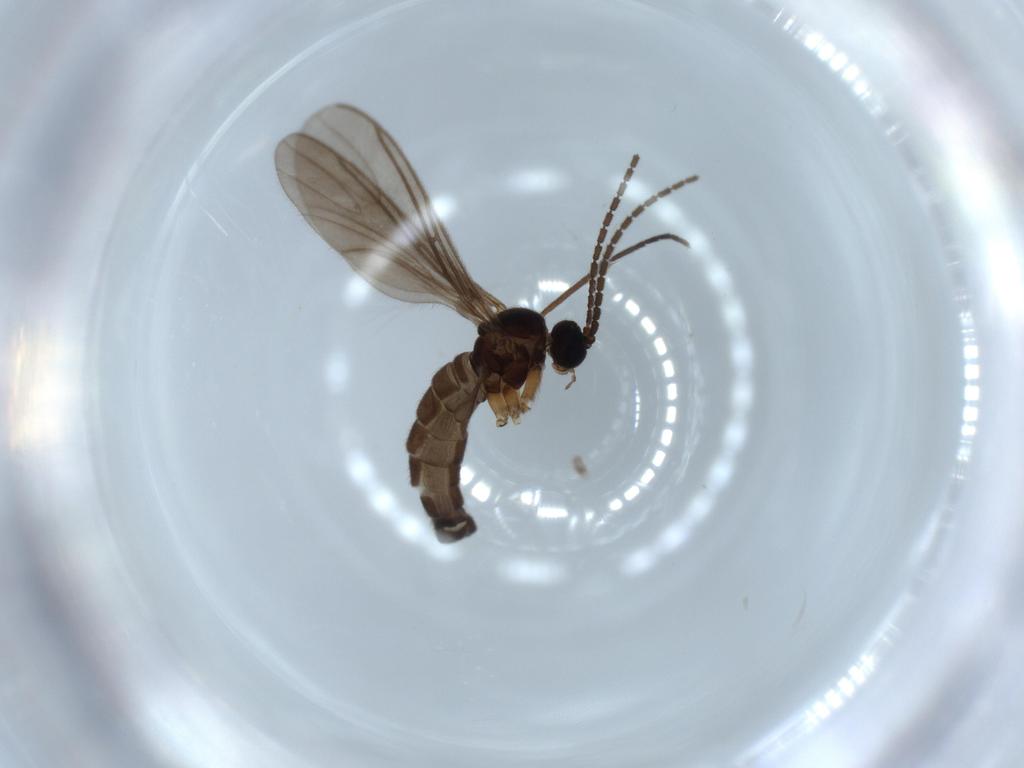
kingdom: Animalia
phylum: Arthropoda
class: Insecta
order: Diptera
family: Sciaridae
